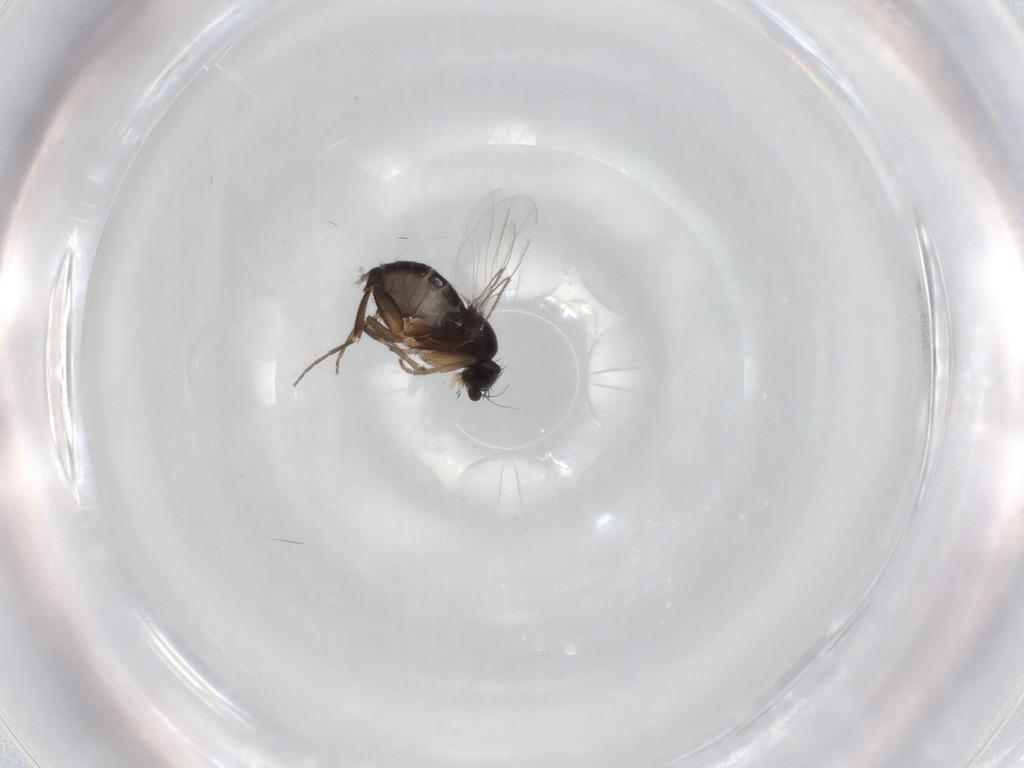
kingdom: Animalia
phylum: Arthropoda
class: Insecta
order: Diptera
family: Phoridae
